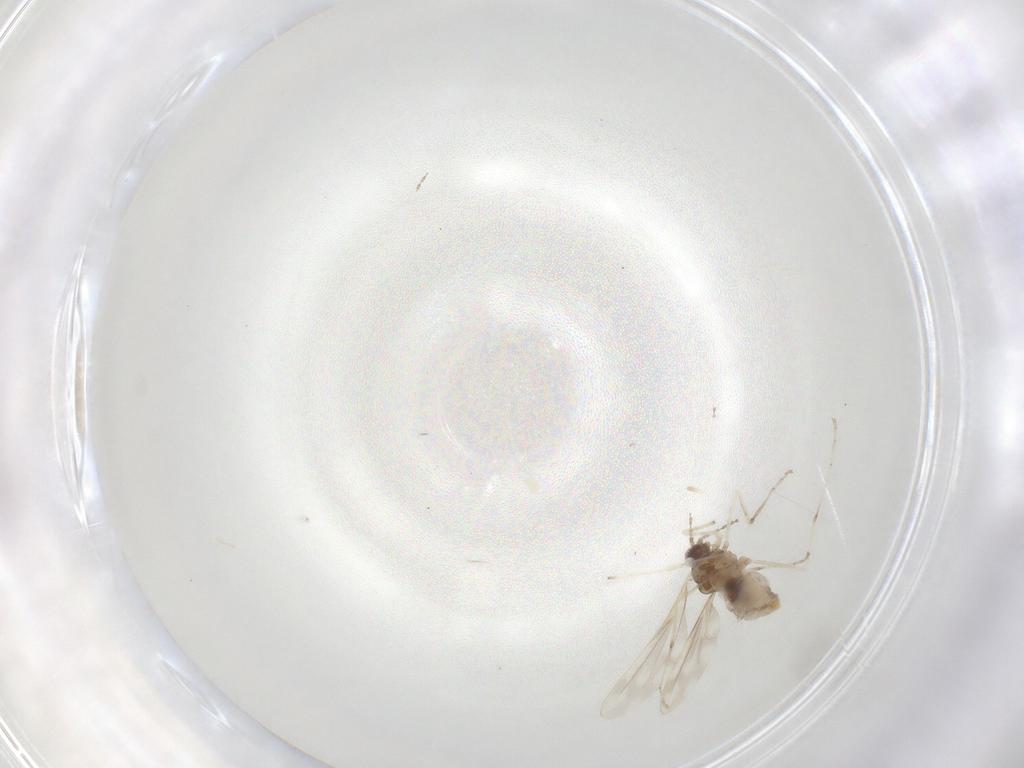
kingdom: Animalia
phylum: Arthropoda
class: Insecta
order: Diptera
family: Cecidomyiidae
